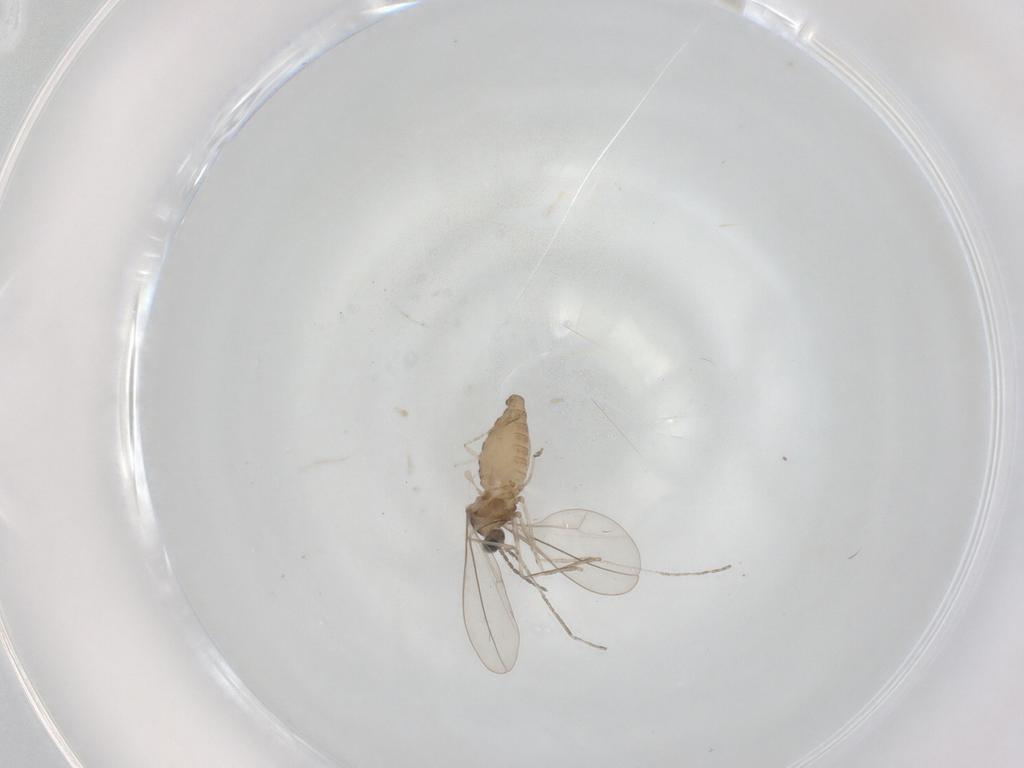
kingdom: Animalia
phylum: Arthropoda
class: Insecta
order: Diptera
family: Cecidomyiidae
